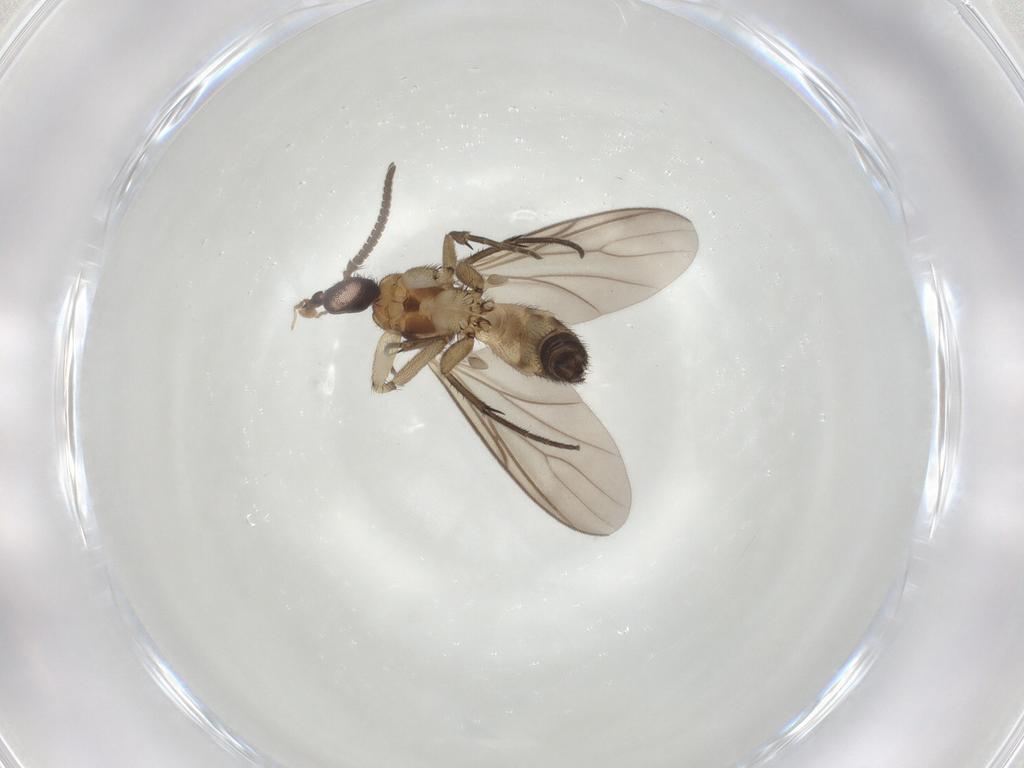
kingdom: Animalia
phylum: Arthropoda
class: Insecta
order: Diptera
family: Mycetophilidae
